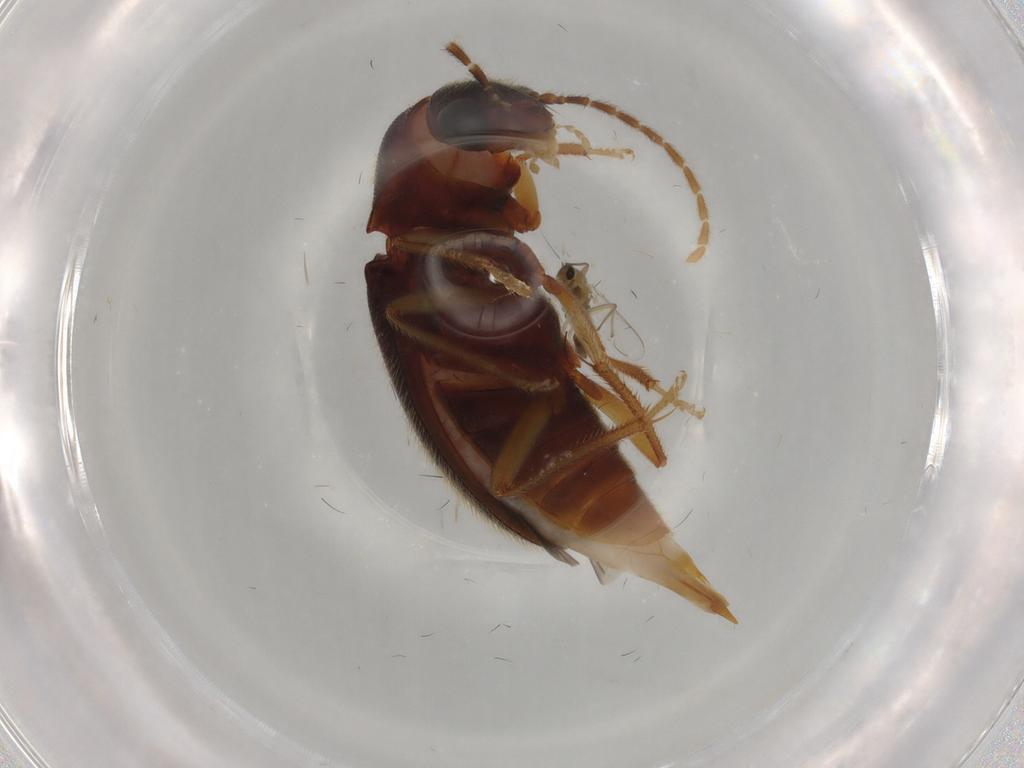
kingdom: Animalia
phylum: Arthropoda
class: Insecta
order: Coleoptera
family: Ptilodactylidae
